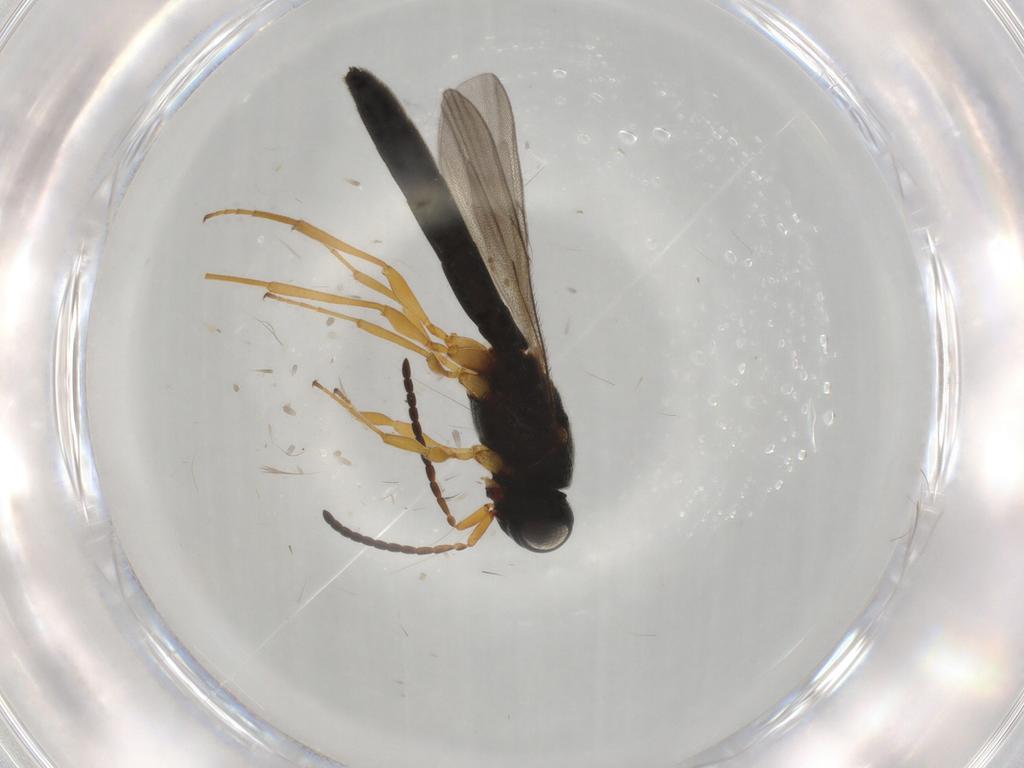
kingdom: Animalia
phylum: Arthropoda
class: Insecta
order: Hymenoptera
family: Scelionidae
